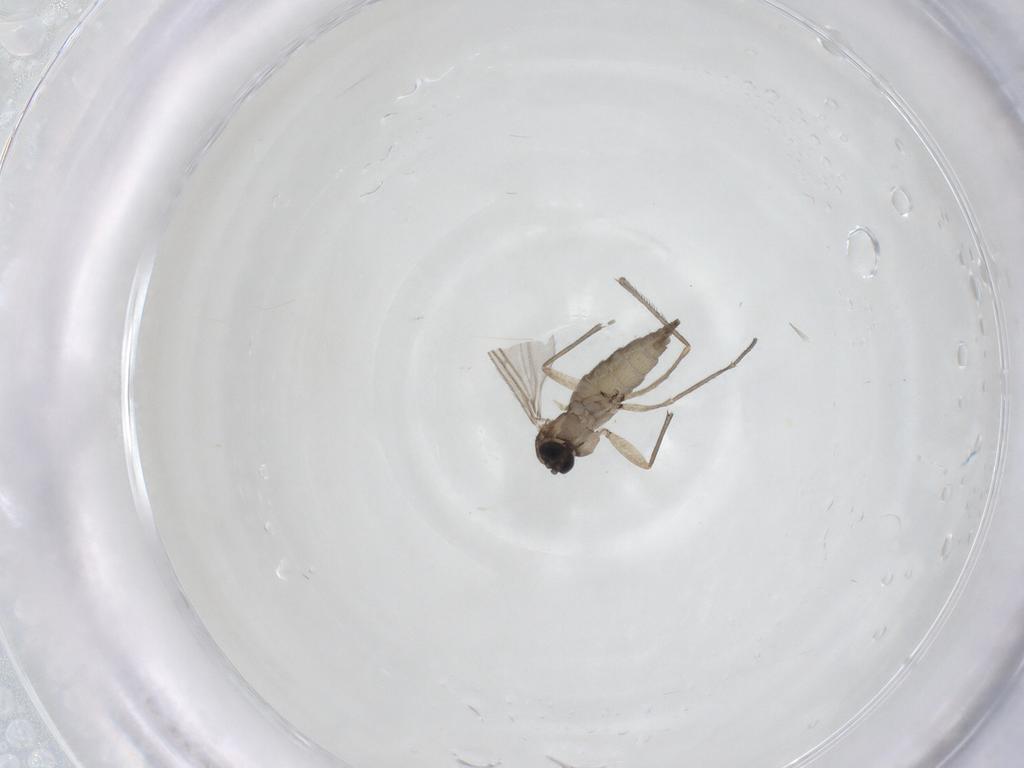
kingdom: Animalia
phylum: Arthropoda
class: Insecta
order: Diptera
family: Sciaridae
